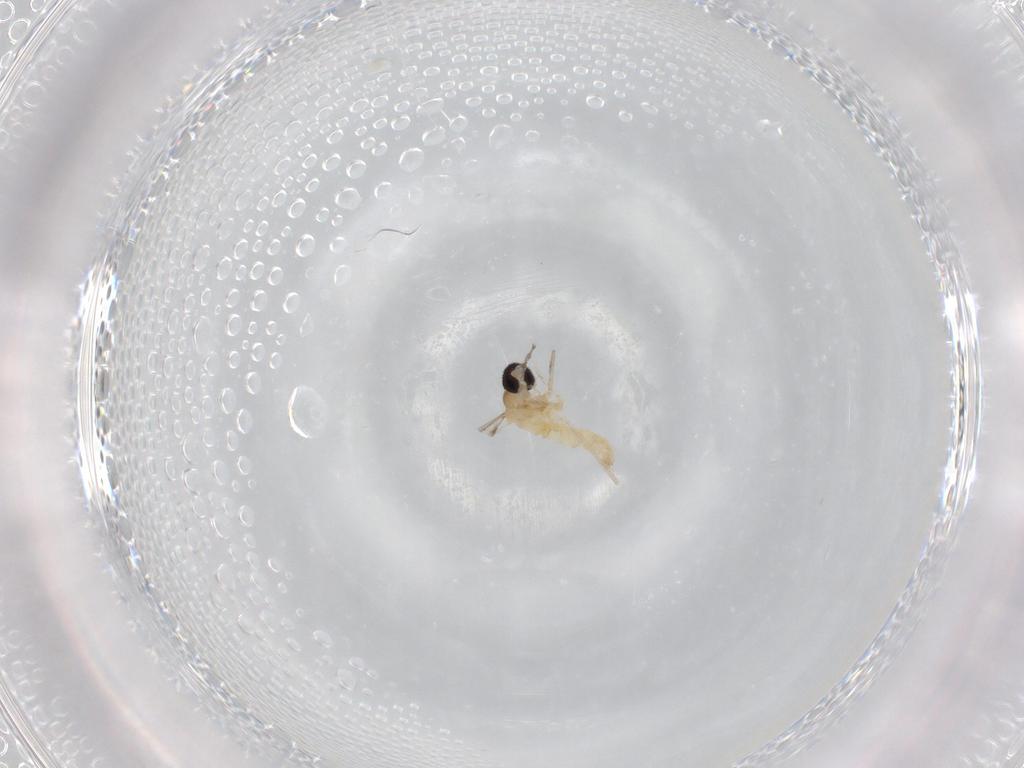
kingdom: Animalia
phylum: Arthropoda
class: Insecta
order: Diptera
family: Cecidomyiidae
